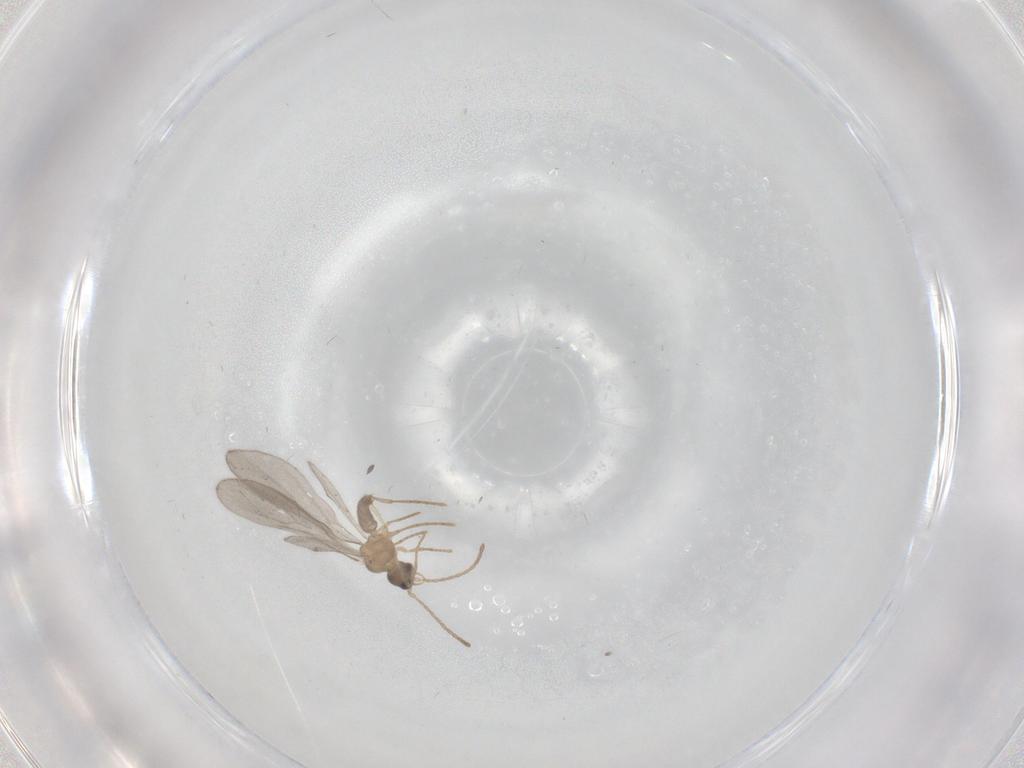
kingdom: Animalia
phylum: Arthropoda
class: Insecta
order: Hymenoptera
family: Formicidae
